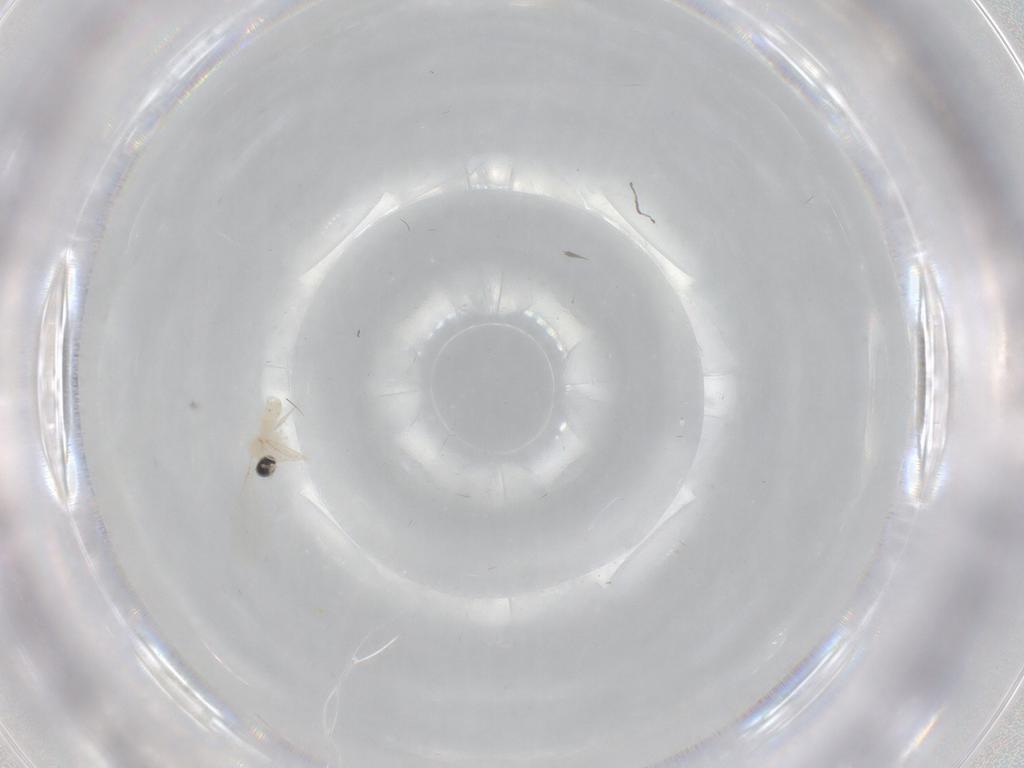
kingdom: Animalia
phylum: Arthropoda
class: Insecta
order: Diptera
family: Cecidomyiidae
